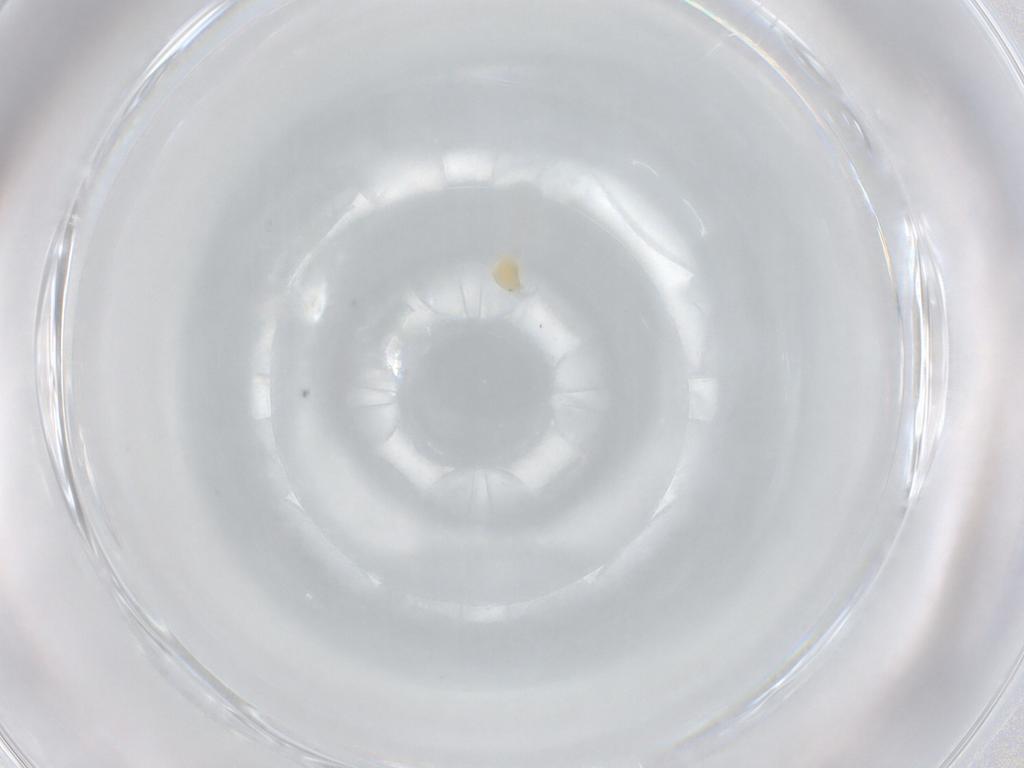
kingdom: Animalia
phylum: Arthropoda
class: Arachnida
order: Trombidiformes
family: Limnesiidae
